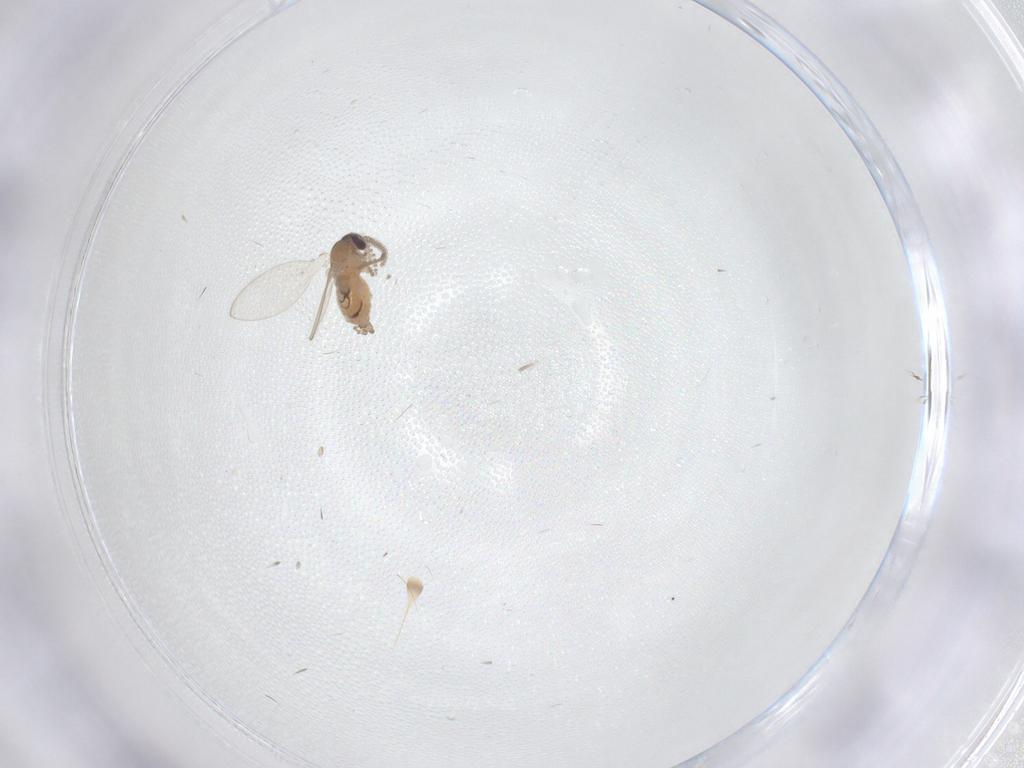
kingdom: Animalia
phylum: Arthropoda
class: Insecta
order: Diptera
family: Psychodidae
